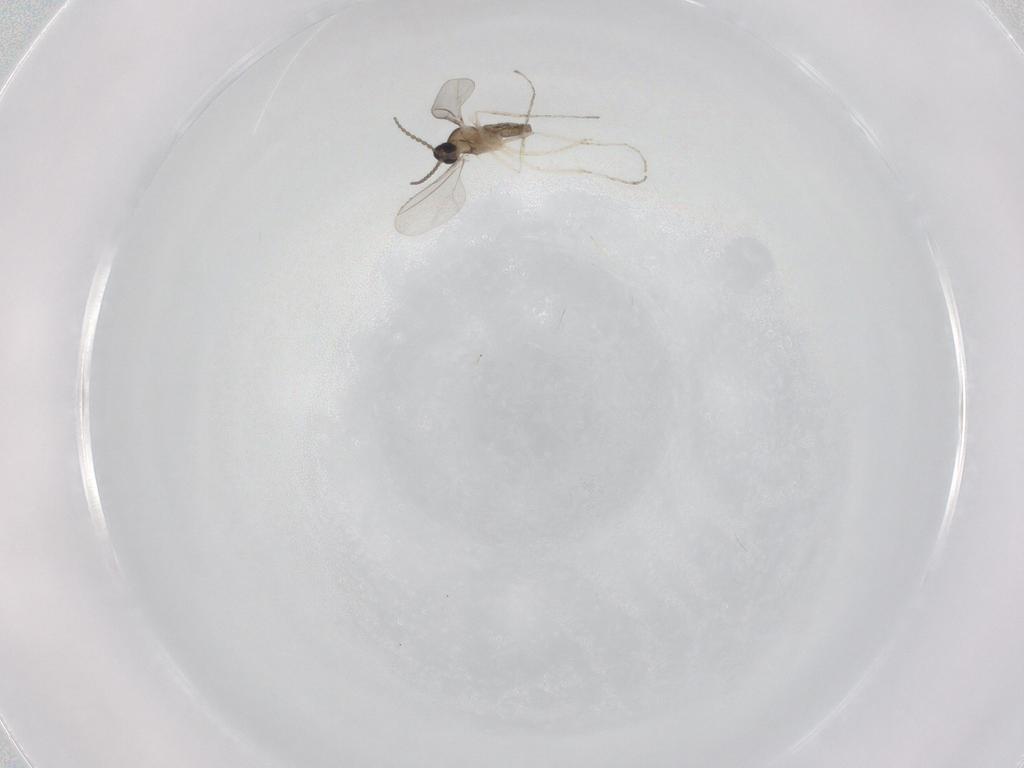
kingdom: Animalia
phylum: Arthropoda
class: Insecta
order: Diptera
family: Cecidomyiidae
